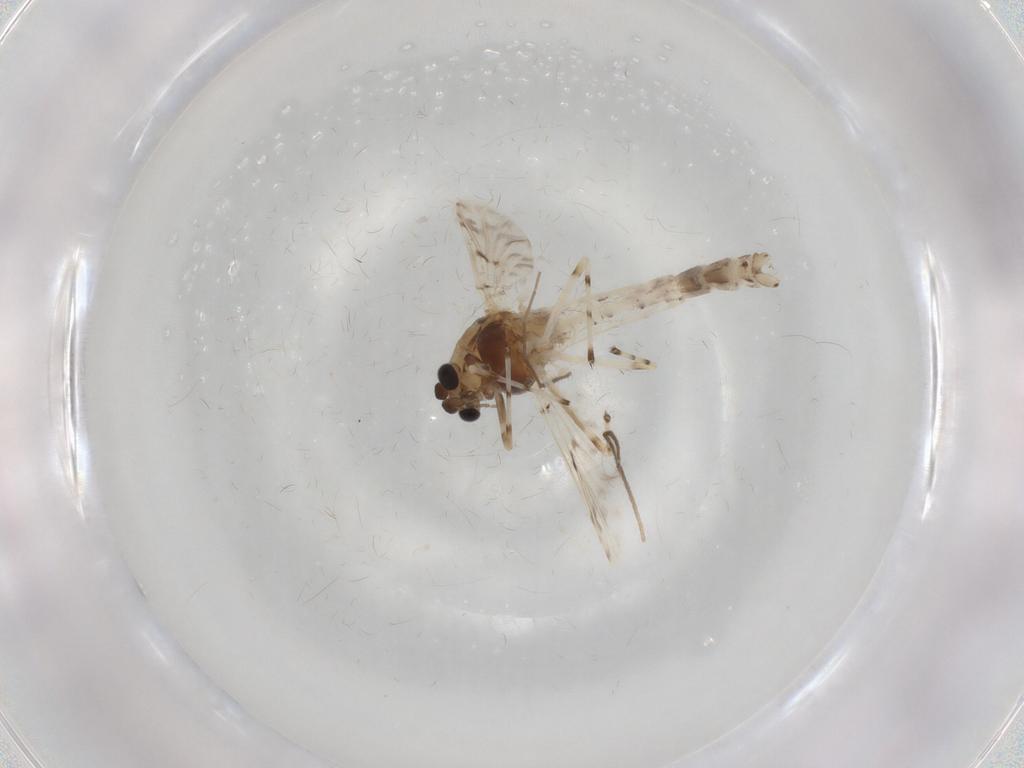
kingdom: Animalia
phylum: Arthropoda
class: Insecta
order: Diptera
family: Chironomidae
